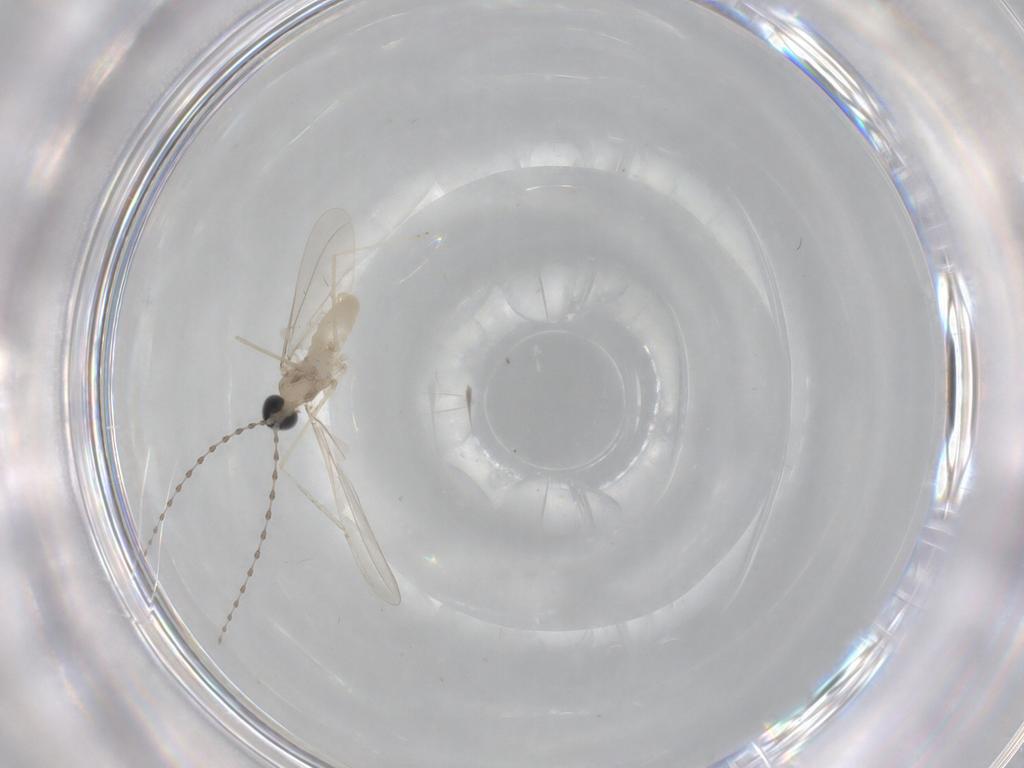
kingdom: Animalia
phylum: Arthropoda
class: Insecta
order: Diptera
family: Cecidomyiidae
